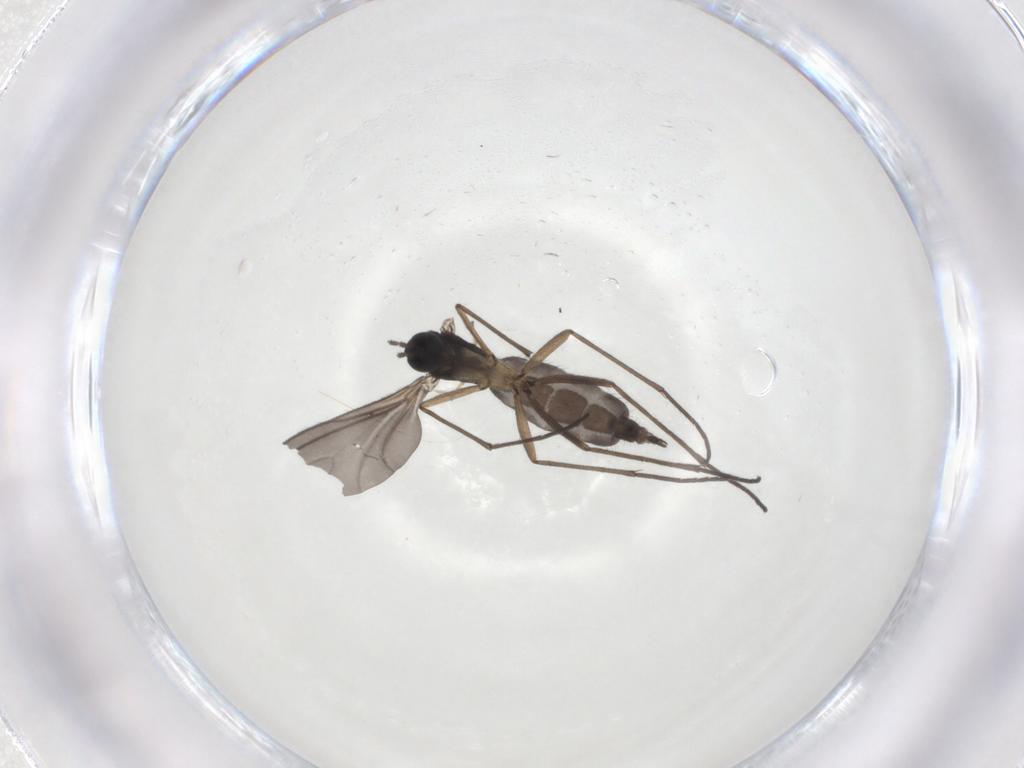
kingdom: Animalia
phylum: Arthropoda
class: Insecta
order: Diptera
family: Sciaridae
